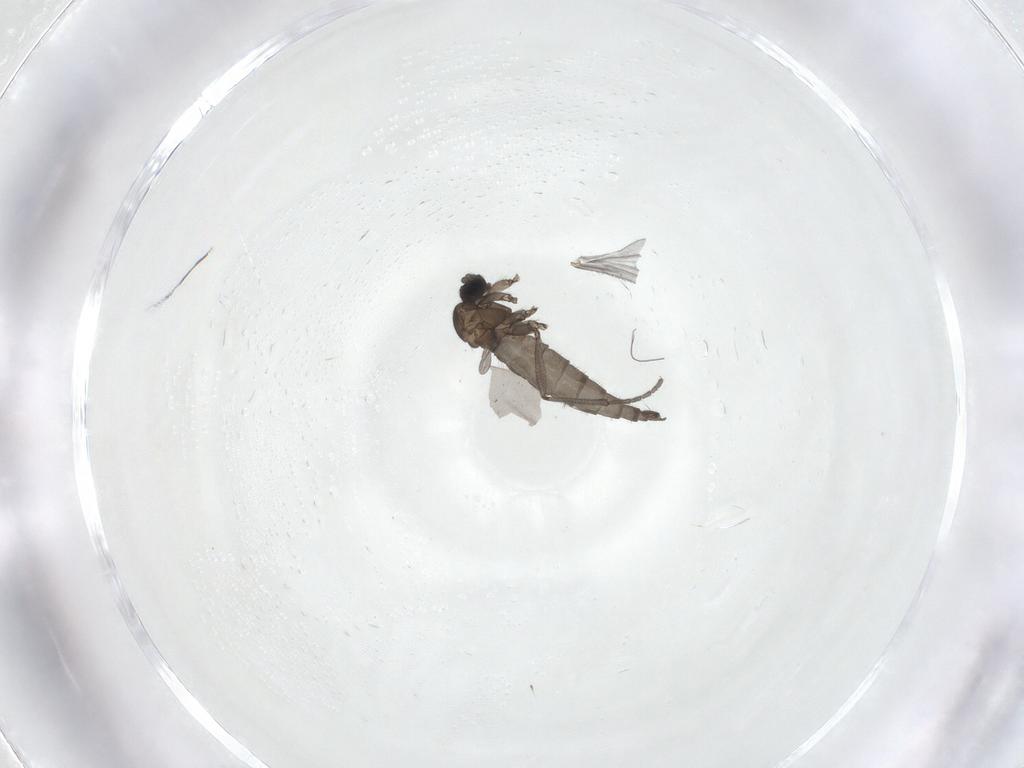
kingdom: Animalia
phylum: Arthropoda
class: Insecta
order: Diptera
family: Sciaridae
